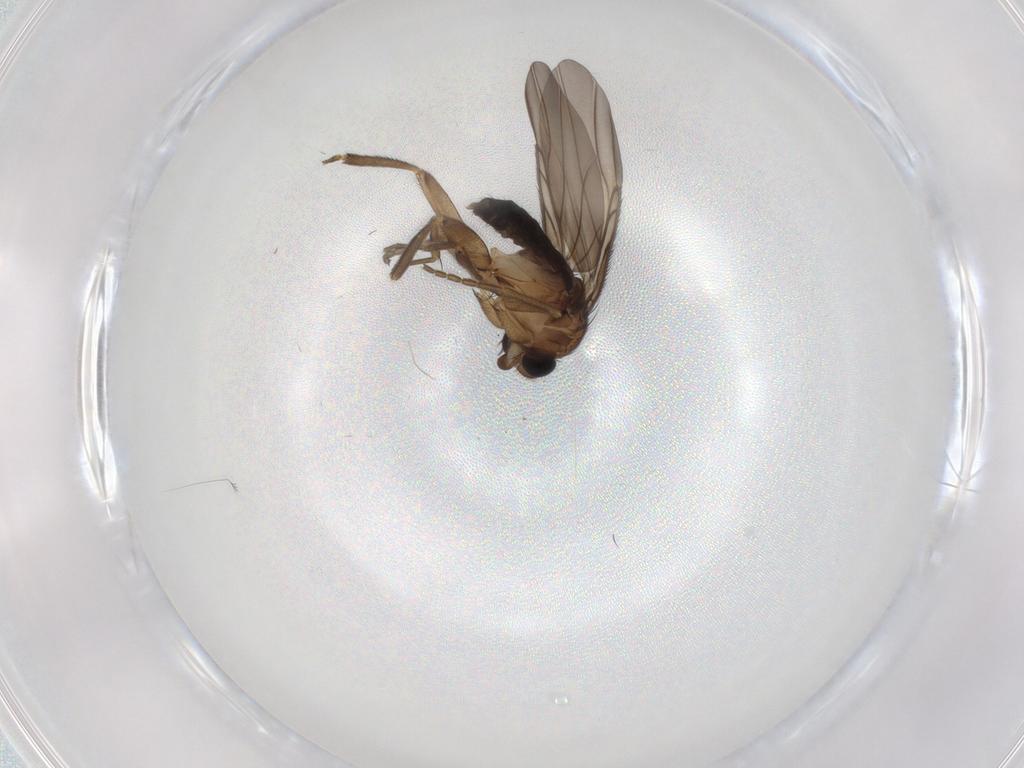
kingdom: Animalia
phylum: Arthropoda
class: Insecta
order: Diptera
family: Phoridae
